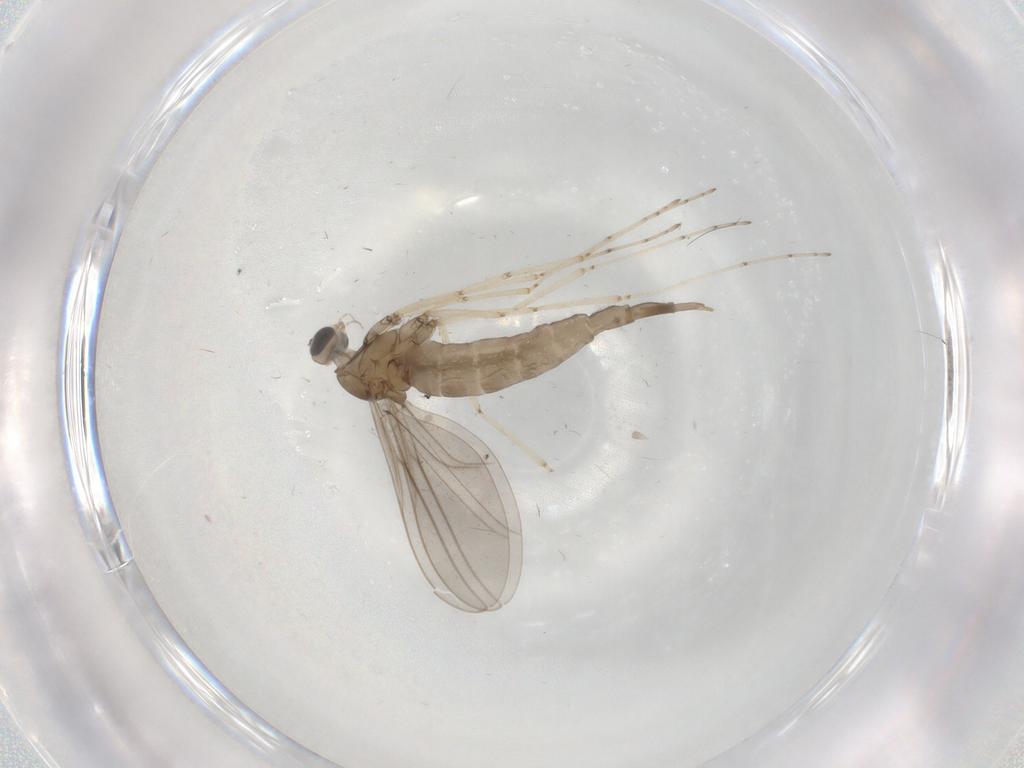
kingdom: Animalia
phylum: Arthropoda
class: Insecta
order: Diptera
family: Cecidomyiidae
